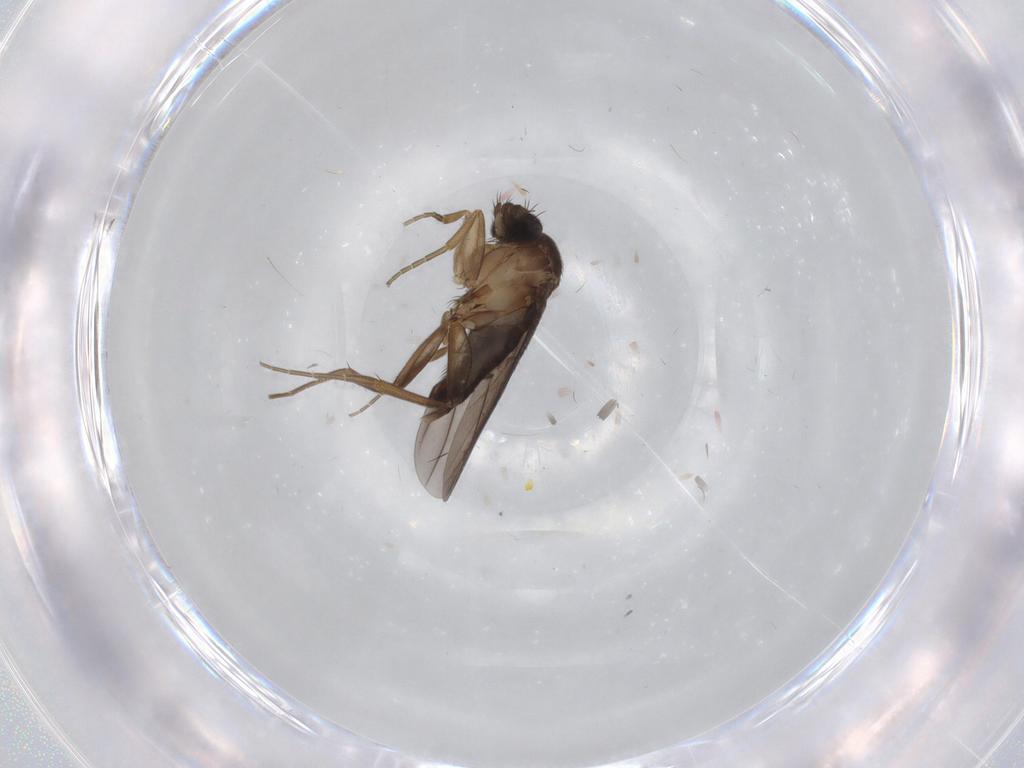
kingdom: Animalia
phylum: Arthropoda
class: Insecta
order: Diptera
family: Phoridae
